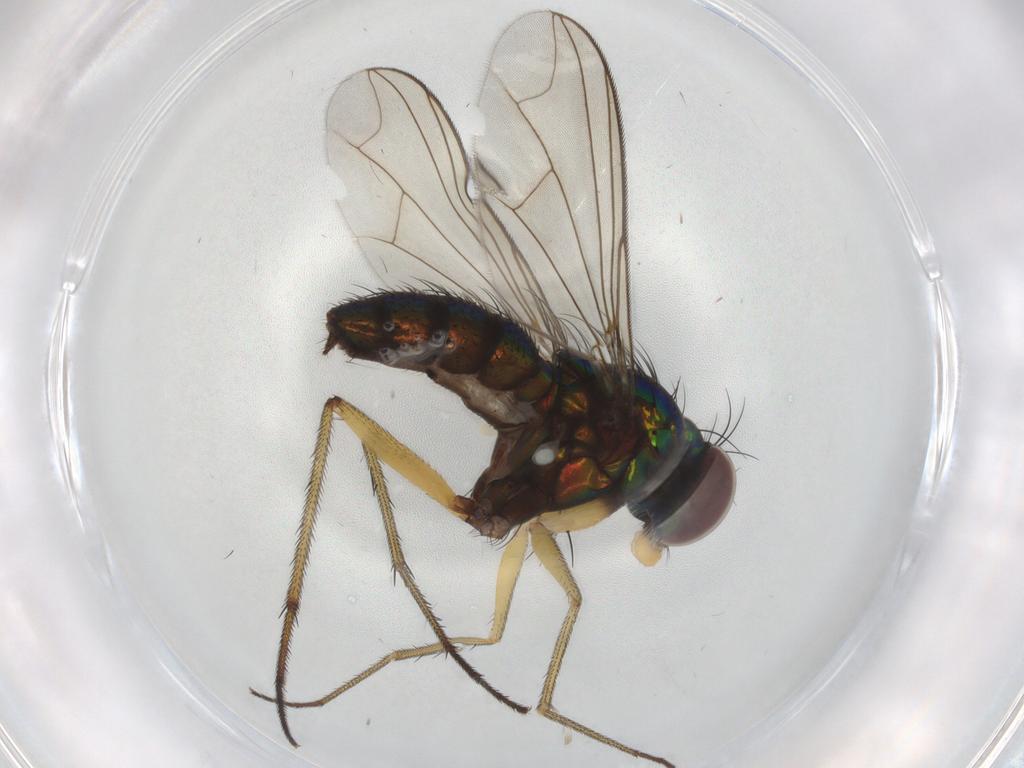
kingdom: Animalia
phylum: Arthropoda
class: Insecta
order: Diptera
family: Dolichopodidae
